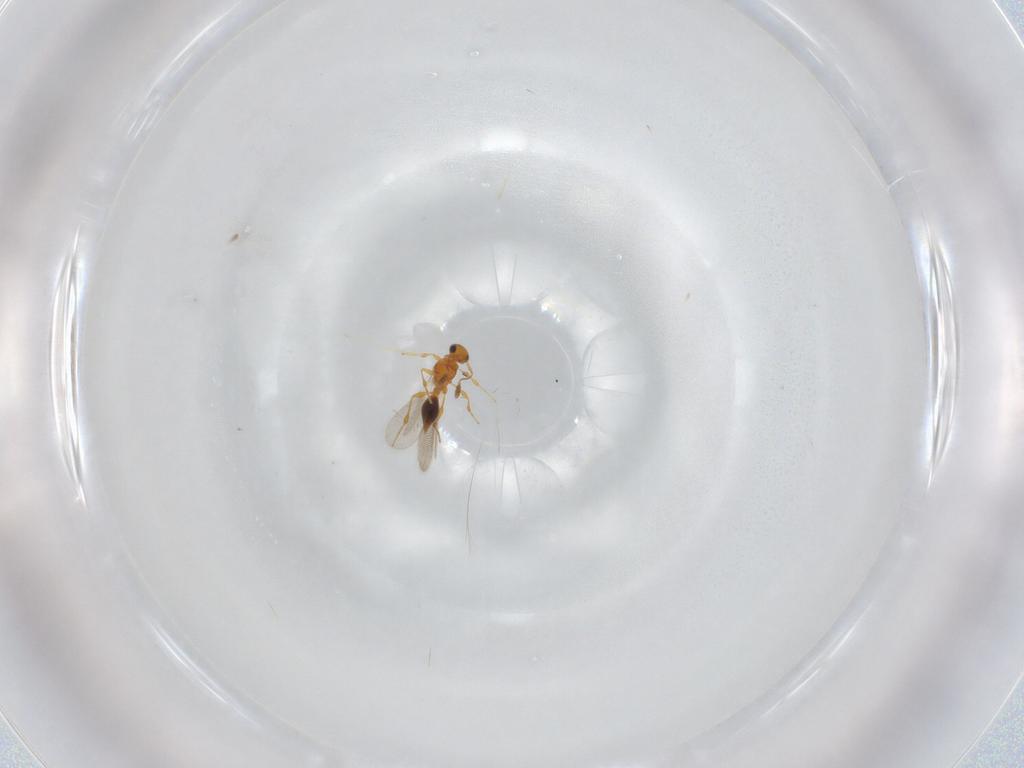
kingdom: Animalia
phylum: Arthropoda
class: Insecta
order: Hymenoptera
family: Platygastridae
